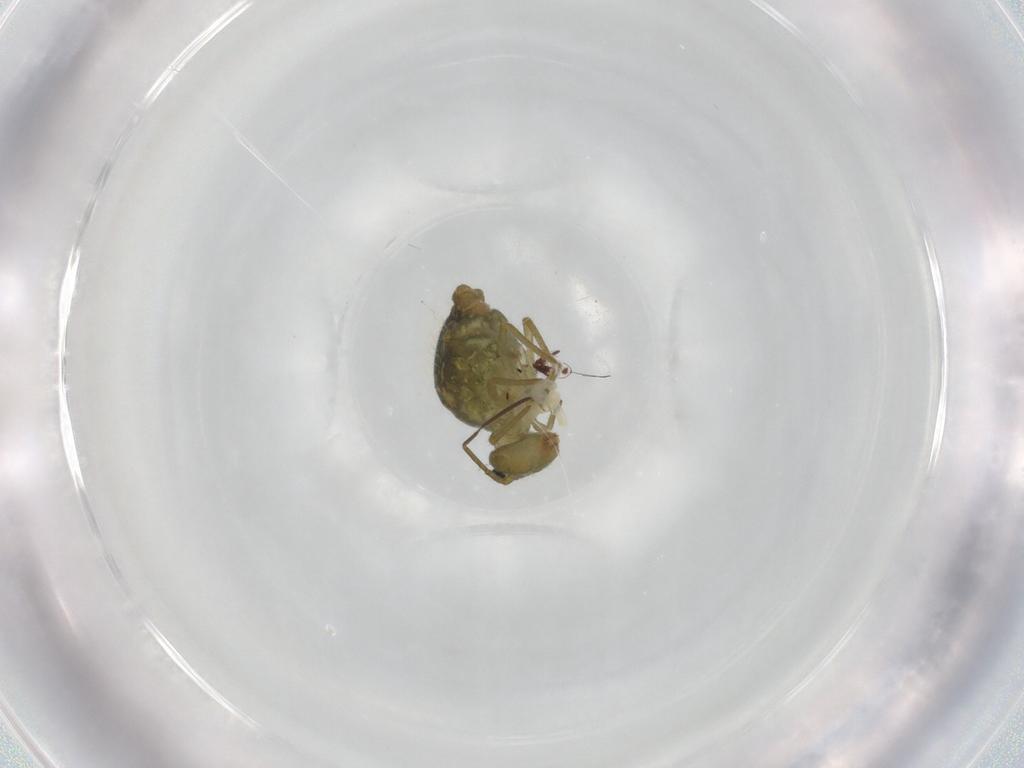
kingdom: Animalia
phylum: Arthropoda
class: Collembola
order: Symphypleona
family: Sminthuridae
